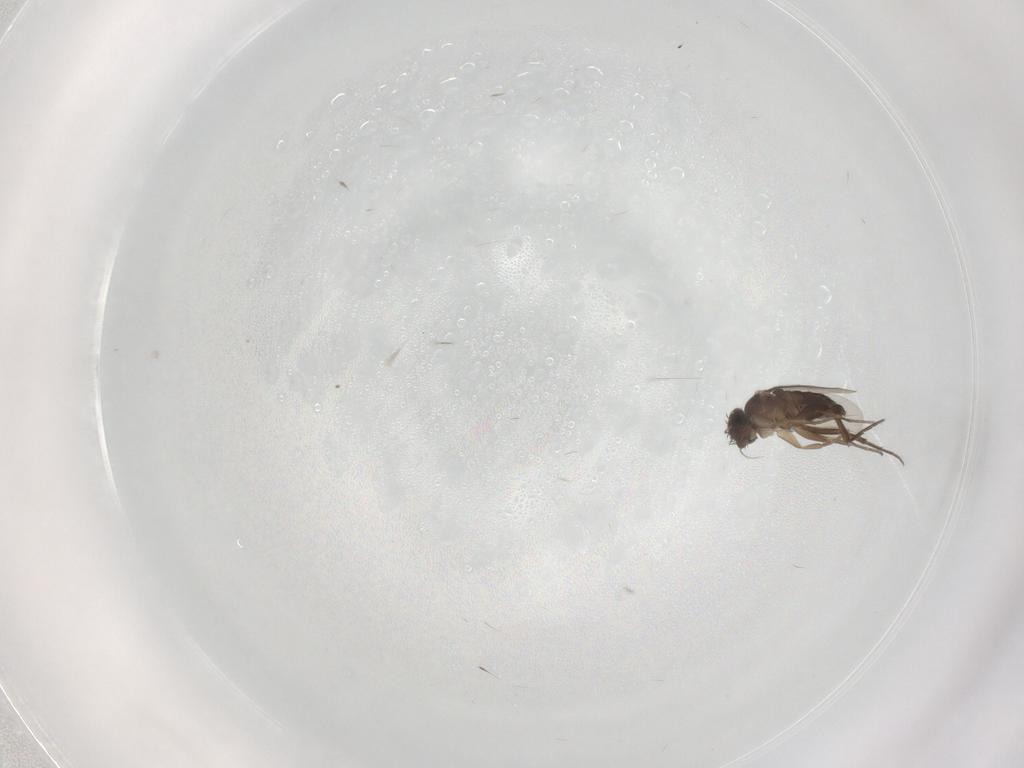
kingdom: Animalia
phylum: Arthropoda
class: Insecta
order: Diptera
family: Phoridae
